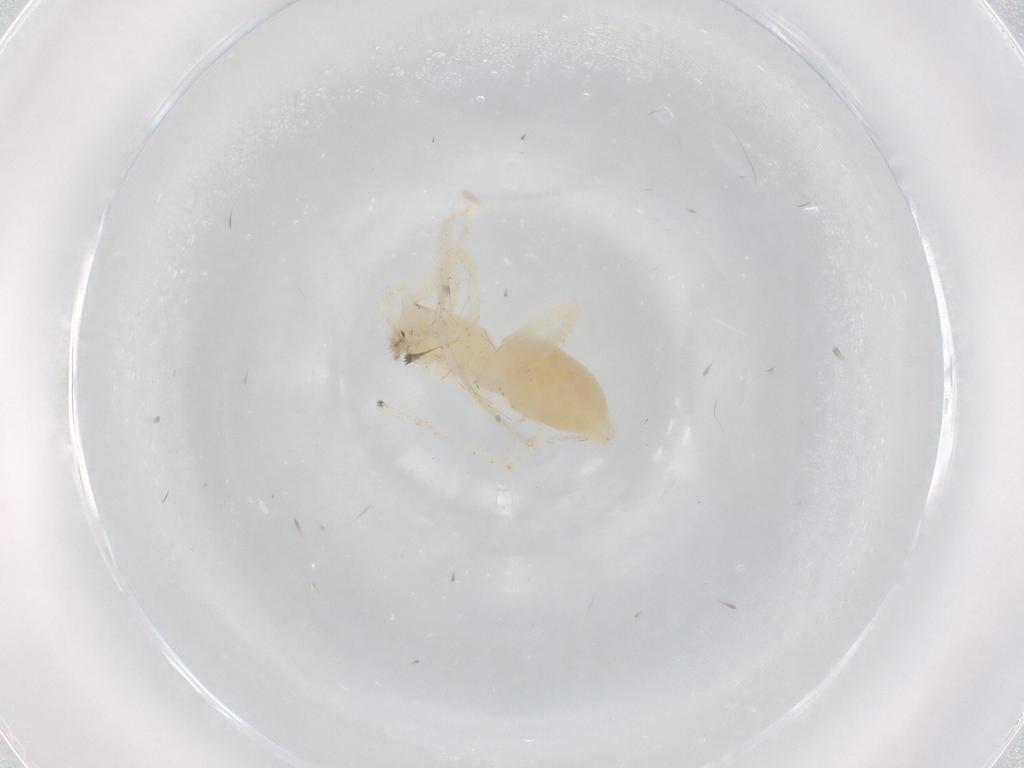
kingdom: Animalia
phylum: Arthropoda
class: Arachnida
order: Araneae
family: Anyphaenidae
